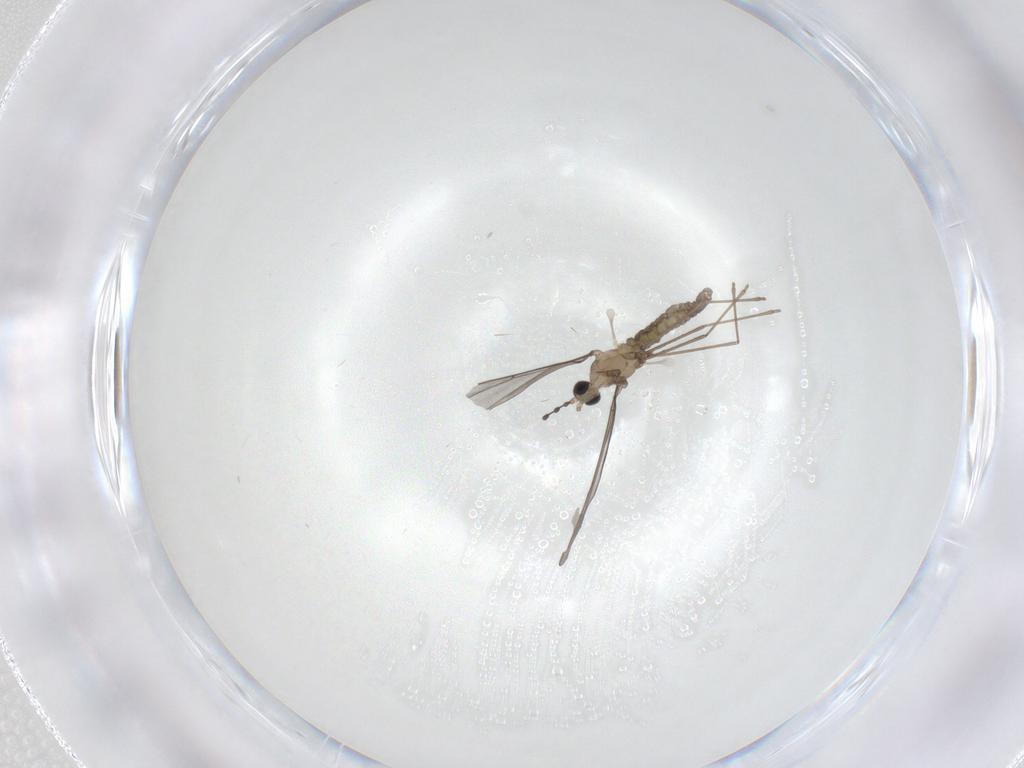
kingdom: Animalia
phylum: Arthropoda
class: Insecta
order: Diptera
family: Cecidomyiidae
